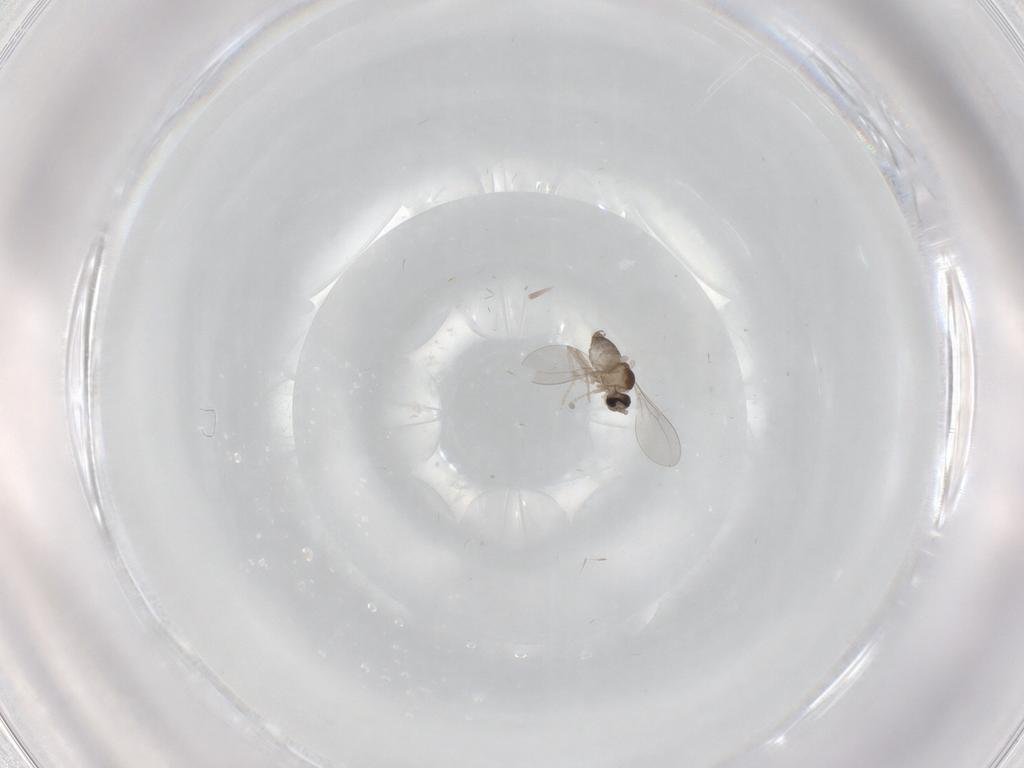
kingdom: Animalia
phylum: Arthropoda
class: Insecta
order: Diptera
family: Cecidomyiidae
